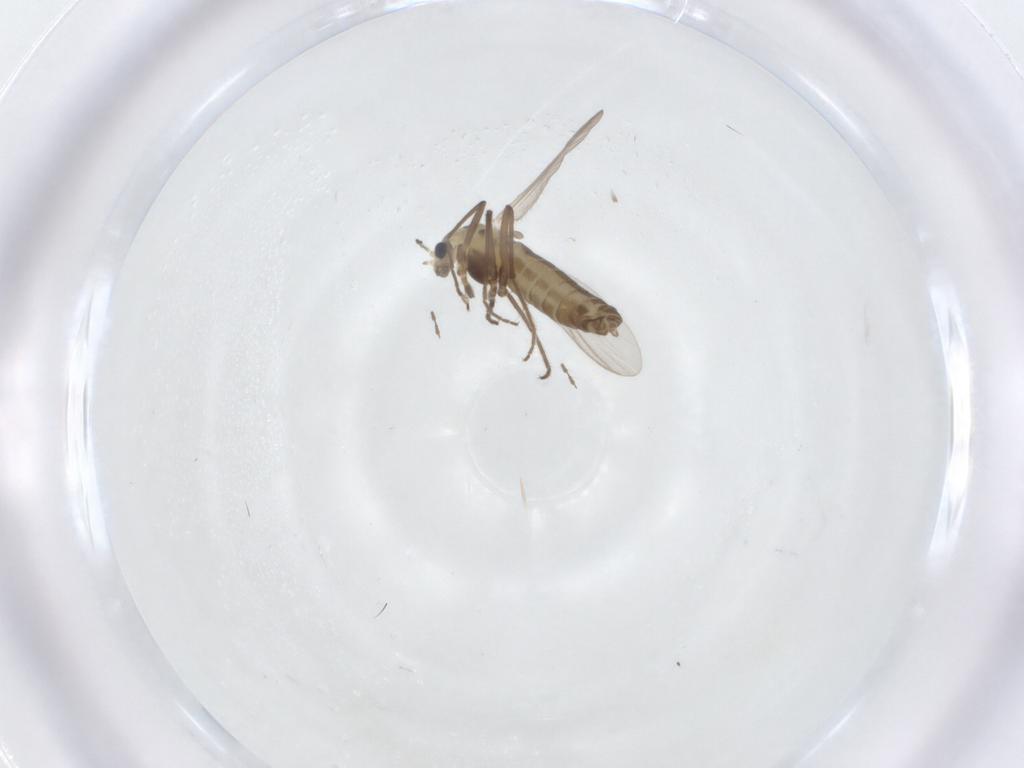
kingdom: Animalia
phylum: Arthropoda
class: Insecta
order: Diptera
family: Chironomidae
